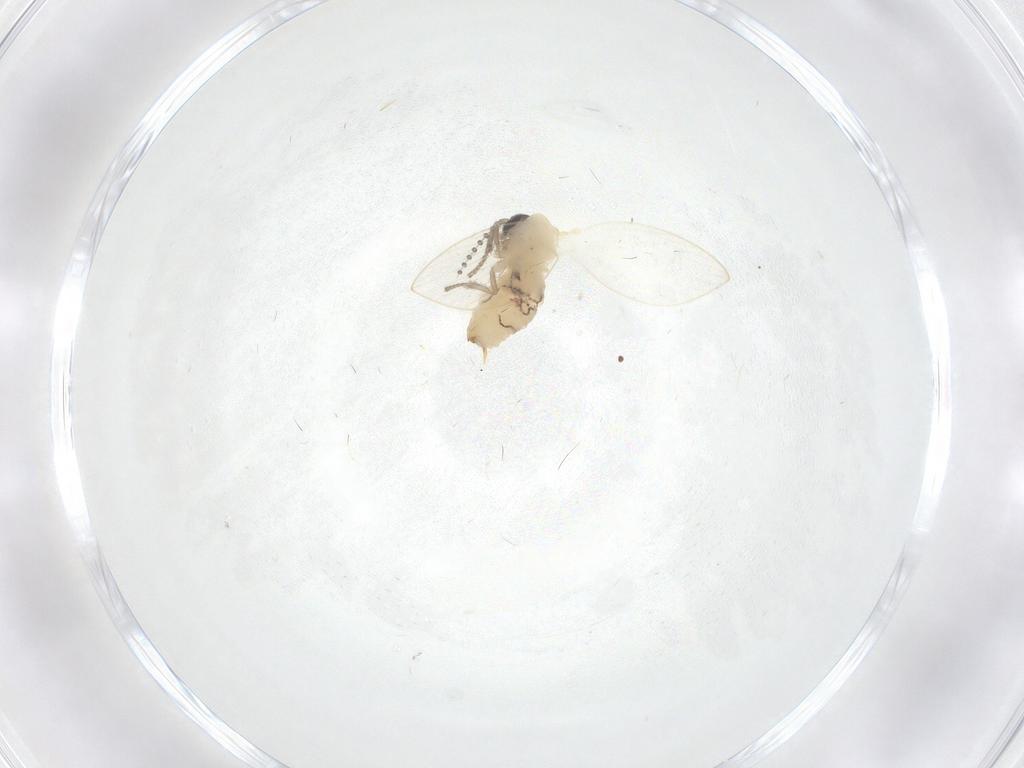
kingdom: Animalia
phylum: Arthropoda
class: Insecta
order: Diptera
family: Psychodidae
